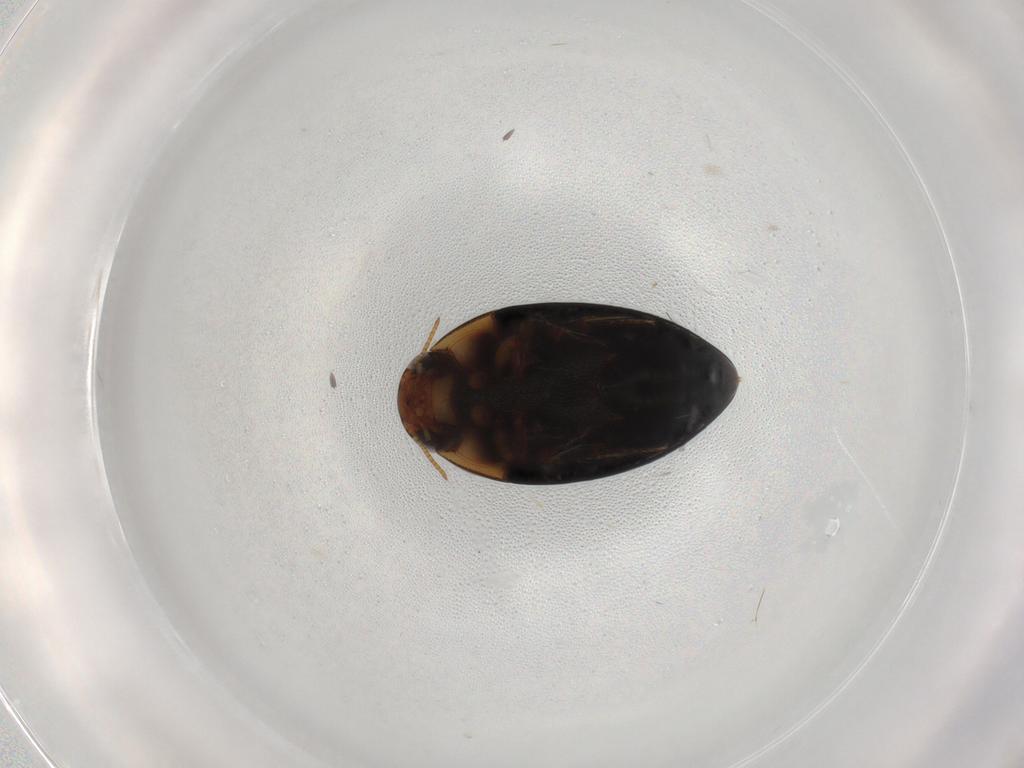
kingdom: Animalia
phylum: Arthropoda
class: Insecta
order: Coleoptera
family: Noteridae
